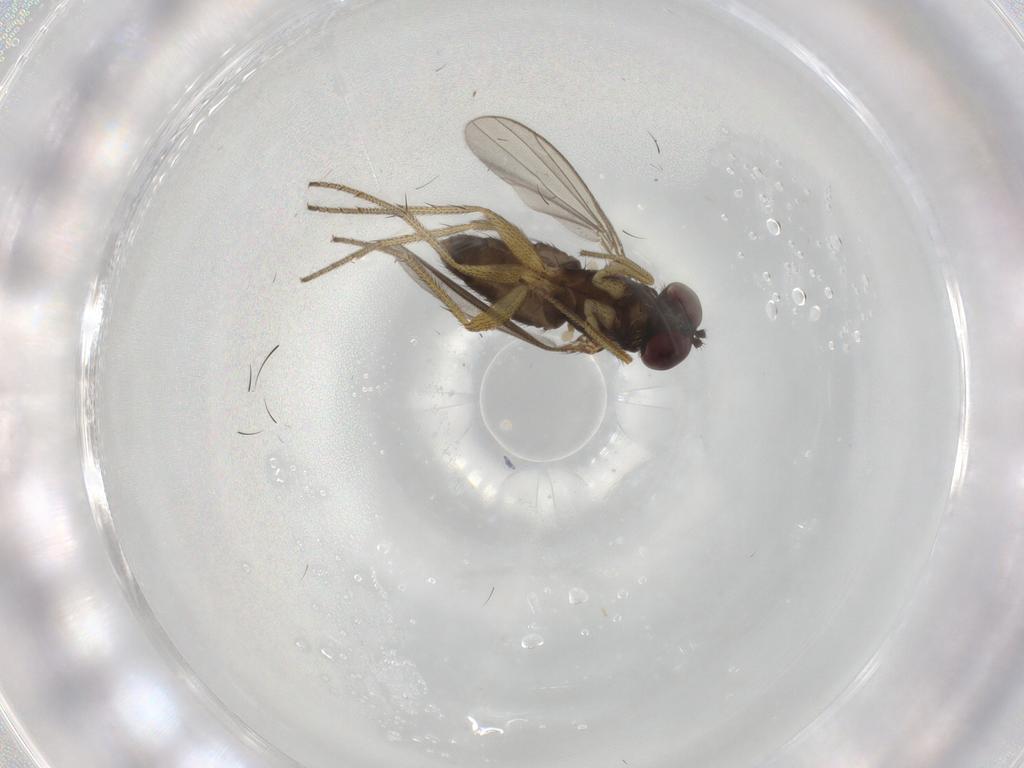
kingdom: Animalia
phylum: Arthropoda
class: Insecta
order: Diptera
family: Dolichopodidae
